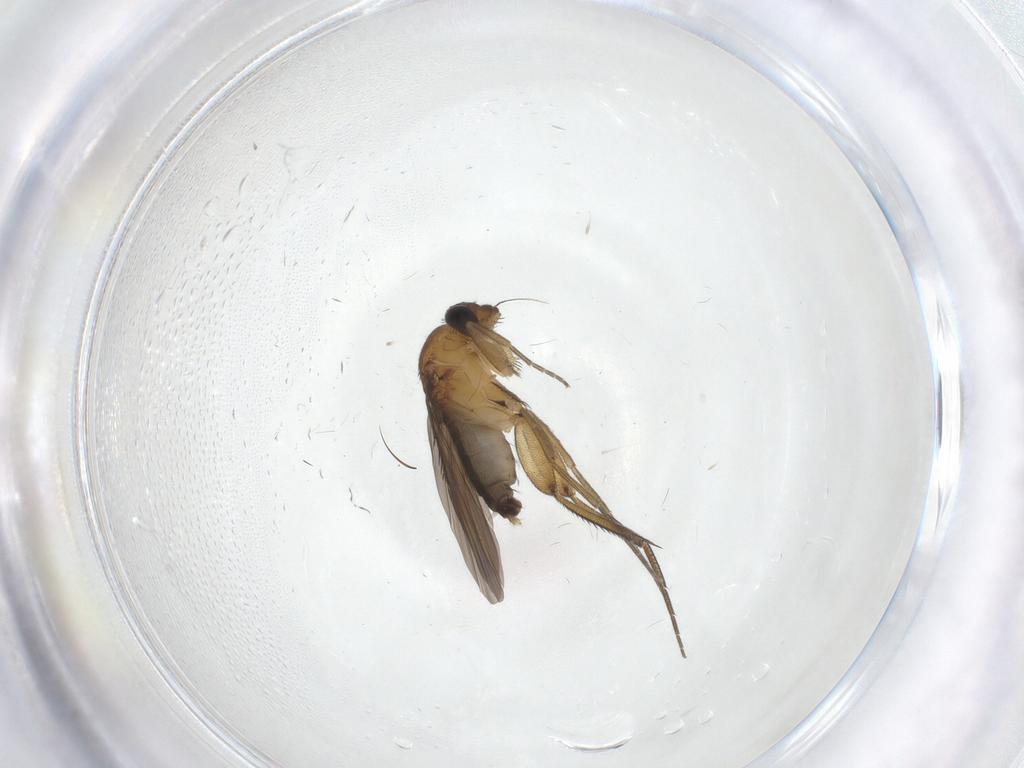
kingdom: Animalia
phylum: Arthropoda
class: Insecta
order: Diptera
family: Phoridae
